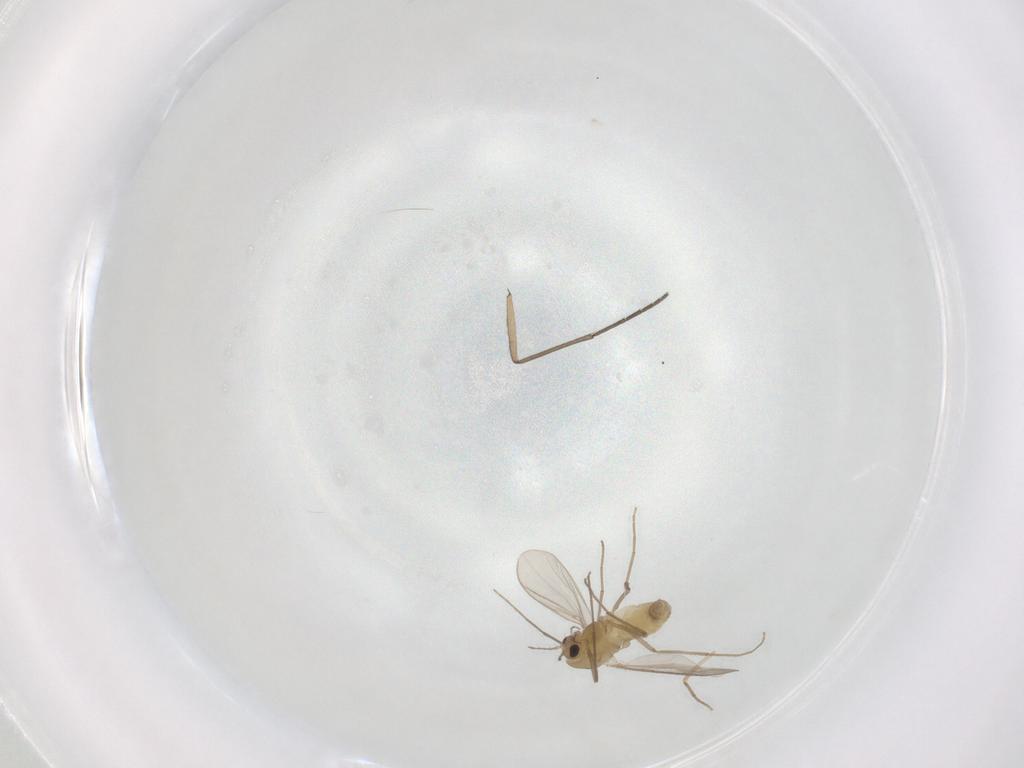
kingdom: Animalia
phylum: Arthropoda
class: Insecta
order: Diptera
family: Chironomidae
